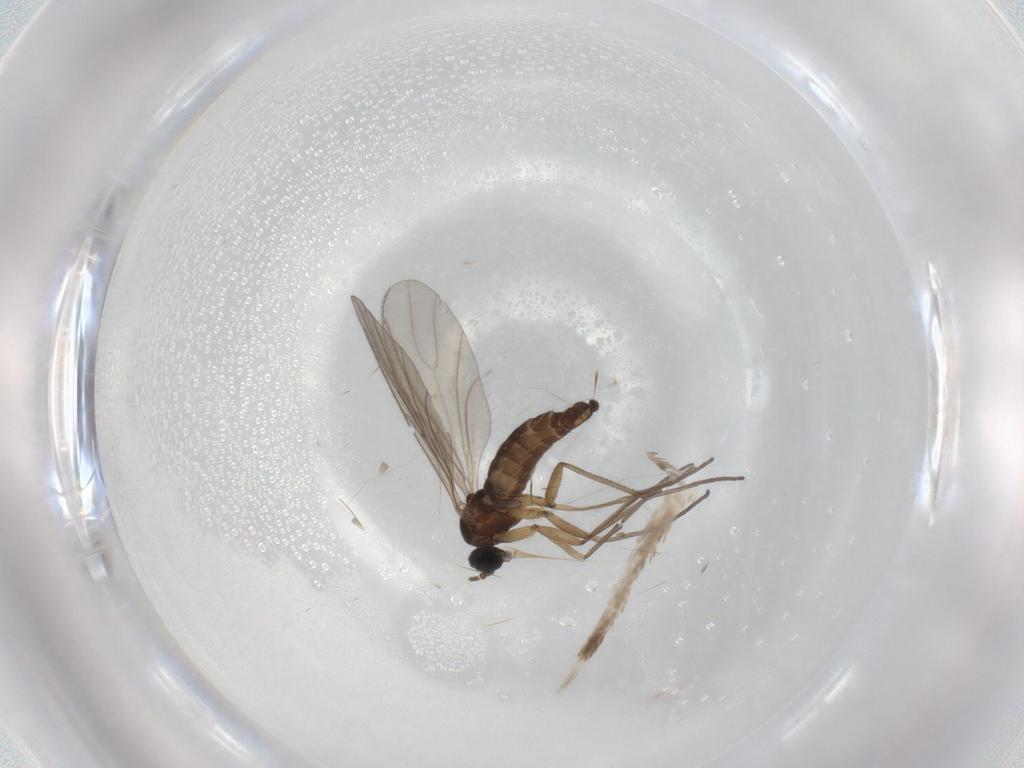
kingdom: Animalia
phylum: Arthropoda
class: Insecta
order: Diptera
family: Sciaridae
